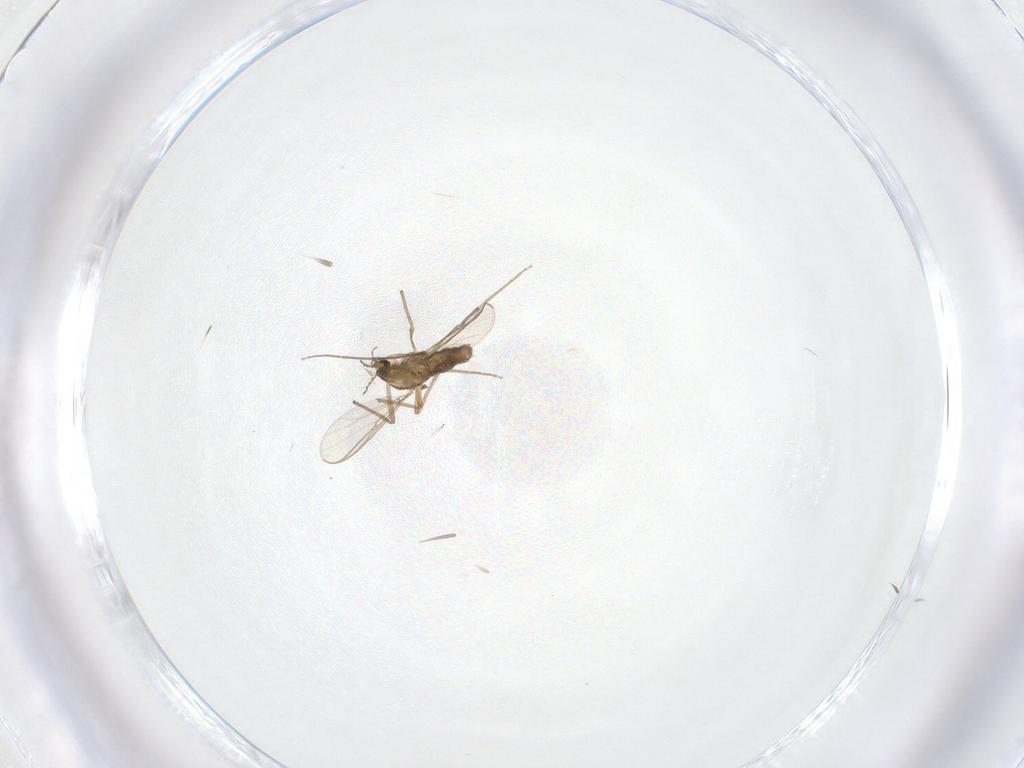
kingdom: Animalia
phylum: Arthropoda
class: Insecta
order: Diptera
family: Chironomidae
